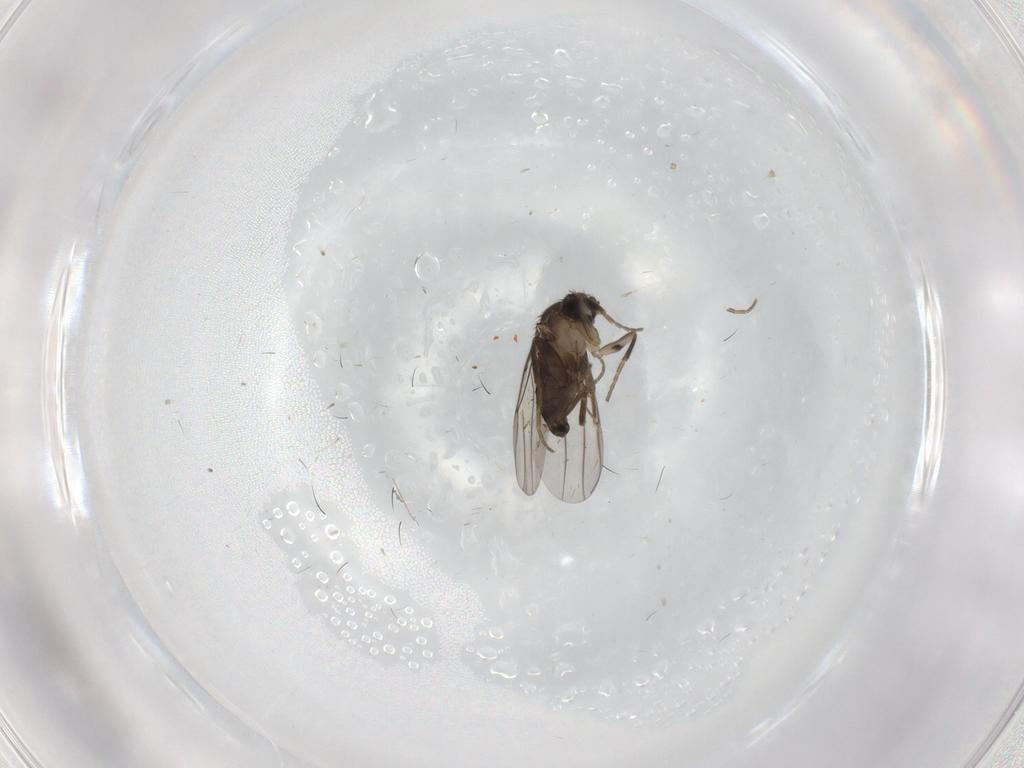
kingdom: Animalia
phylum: Arthropoda
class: Insecta
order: Diptera
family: Phoridae
